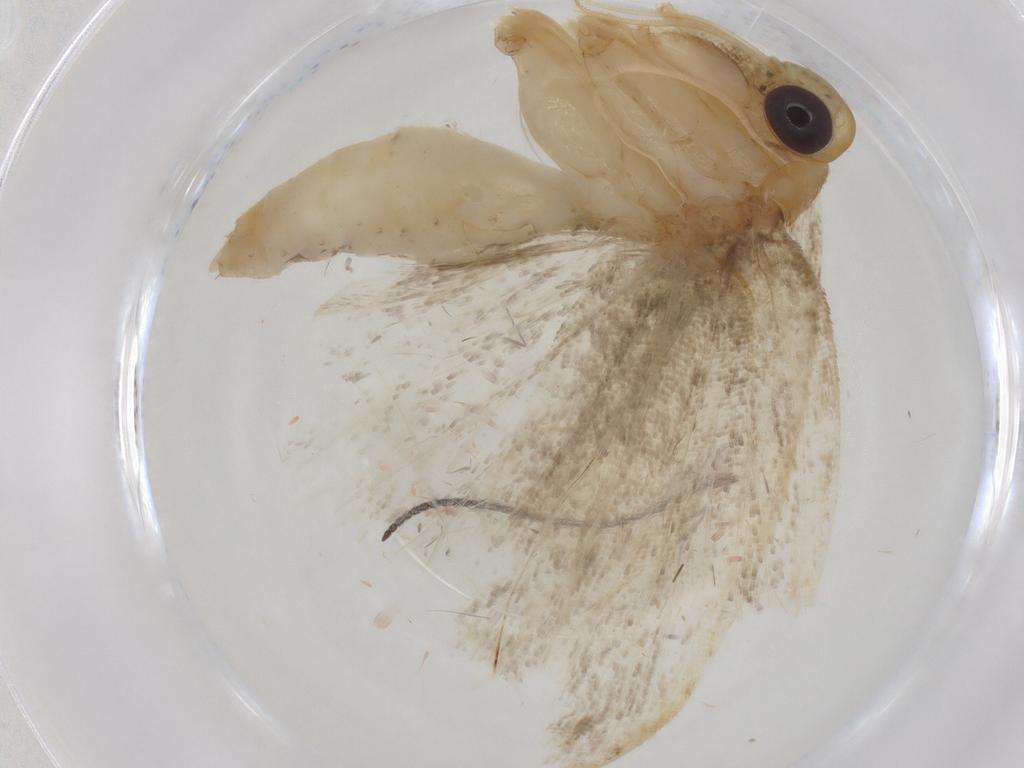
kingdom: Animalia
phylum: Arthropoda
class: Insecta
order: Lepidoptera
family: Depressariidae
